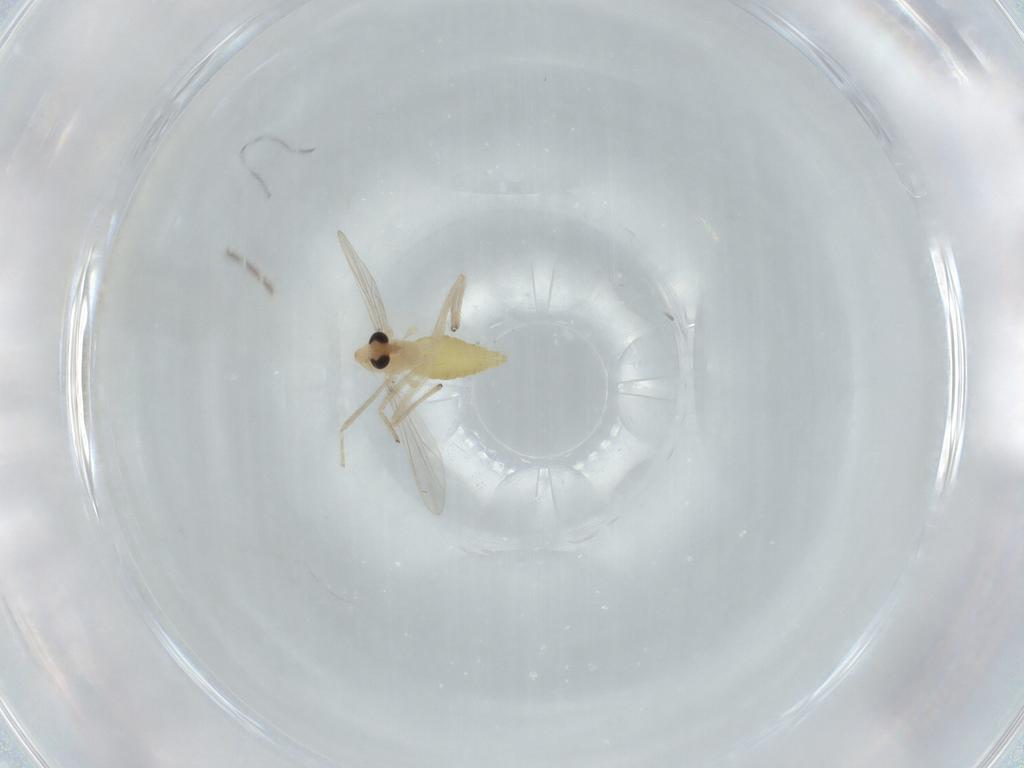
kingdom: Animalia
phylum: Arthropoda
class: Insecta
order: Diptera
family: Chironomidae
